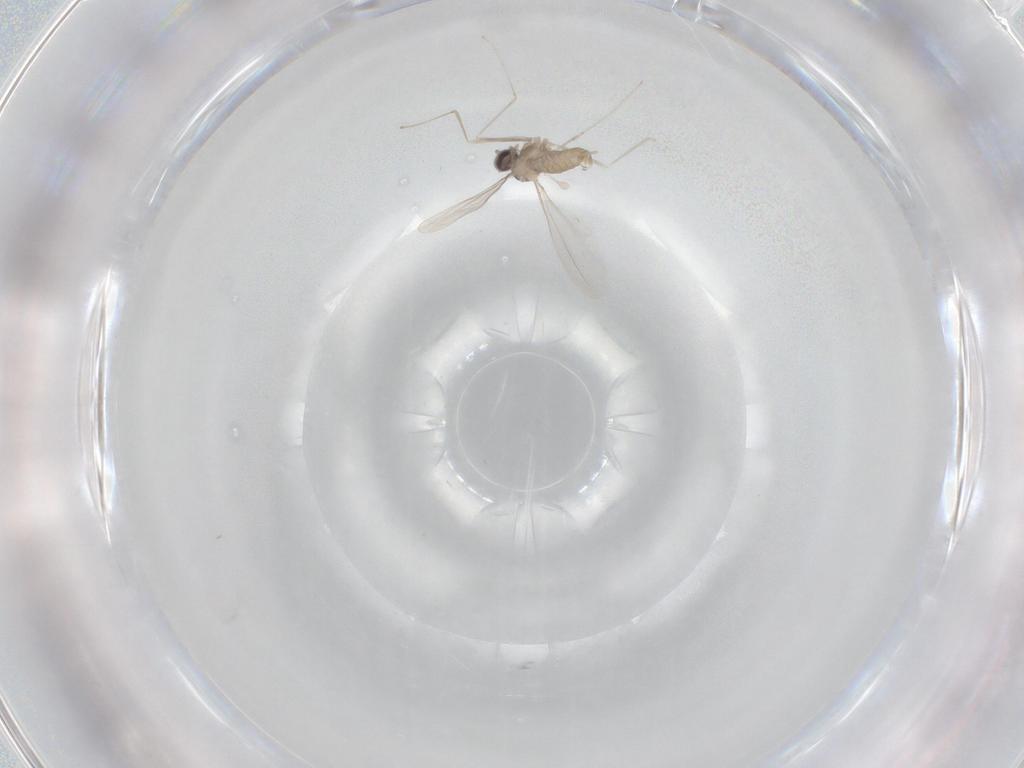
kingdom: Animalia
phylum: Arthropoda
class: Insecta
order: Diptera
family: Cecidomyiidae
